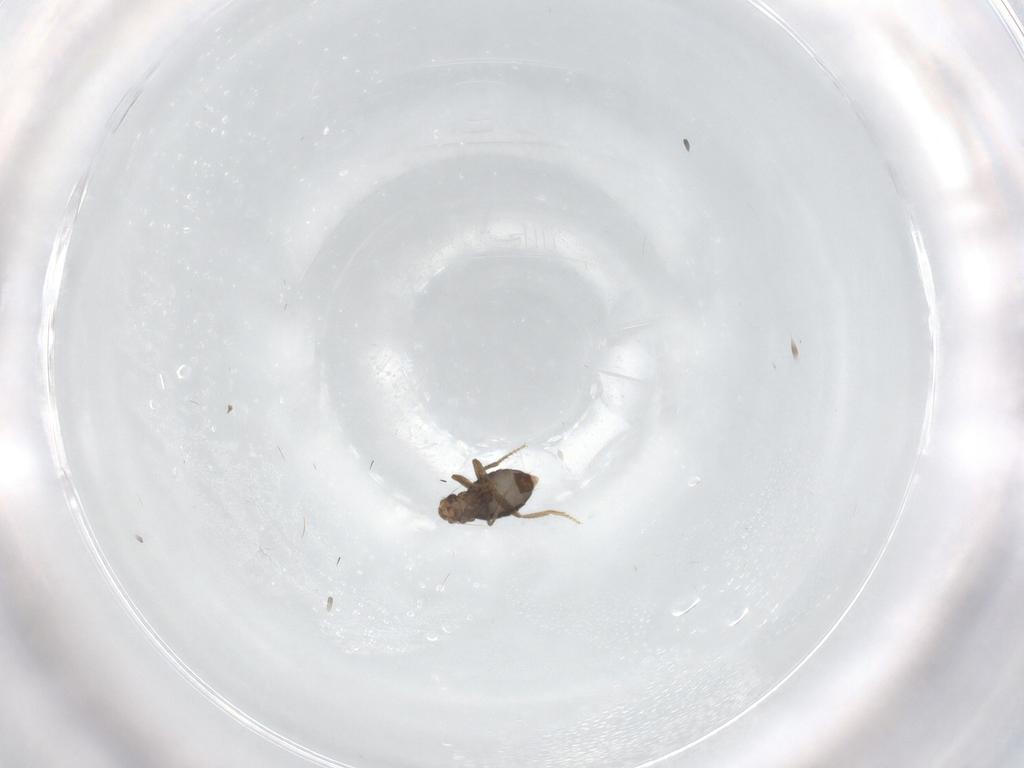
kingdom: Animalia
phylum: Arthropoda
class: Insecta
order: Diptera
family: Phoridae
